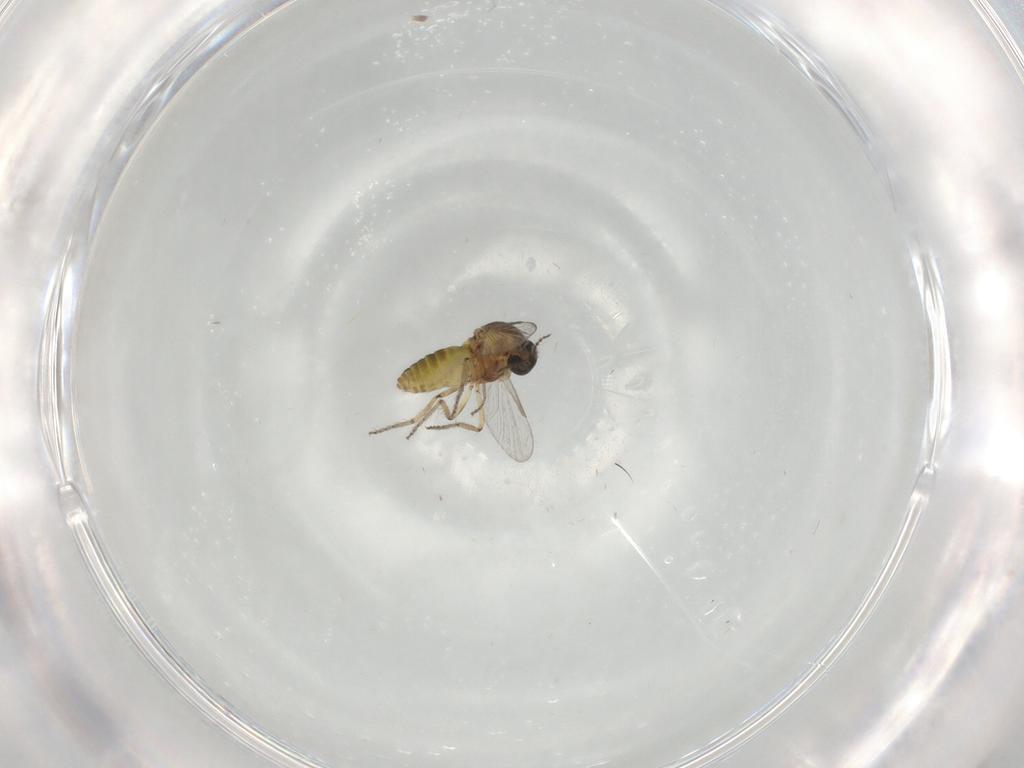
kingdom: Animalia
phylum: Arthropoda
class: Insecta
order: Diptera
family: Ceratopogonidae
